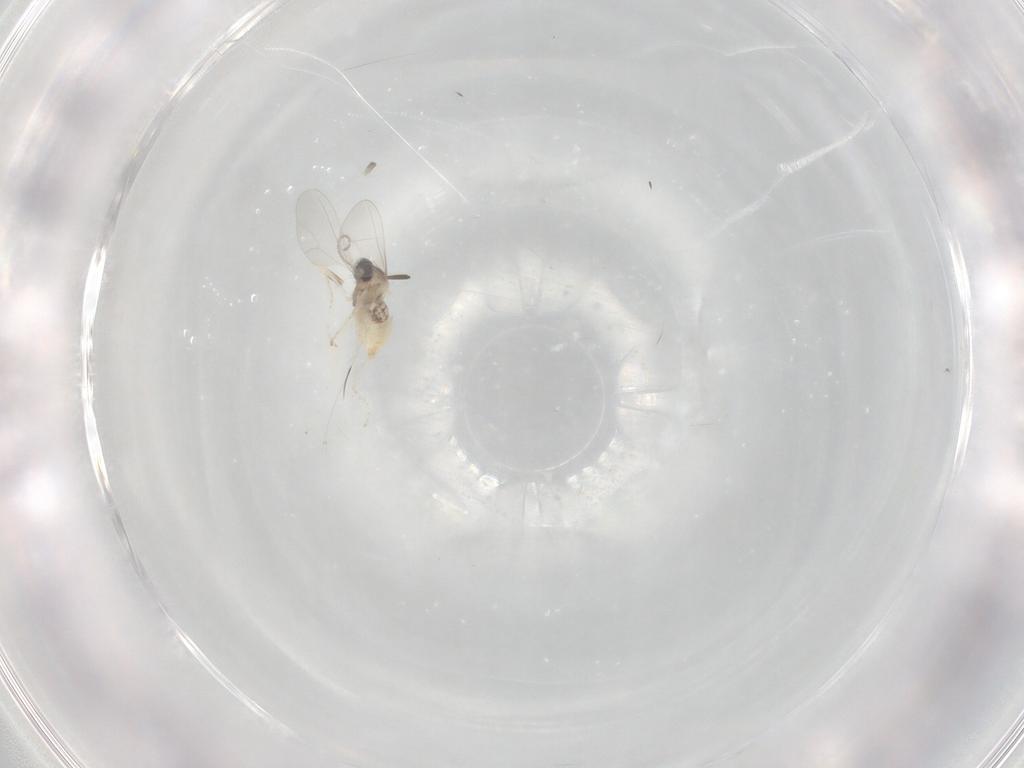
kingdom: Animalia
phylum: Arthropoda
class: Insecta
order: Diptera
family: Cecidomyiidae
